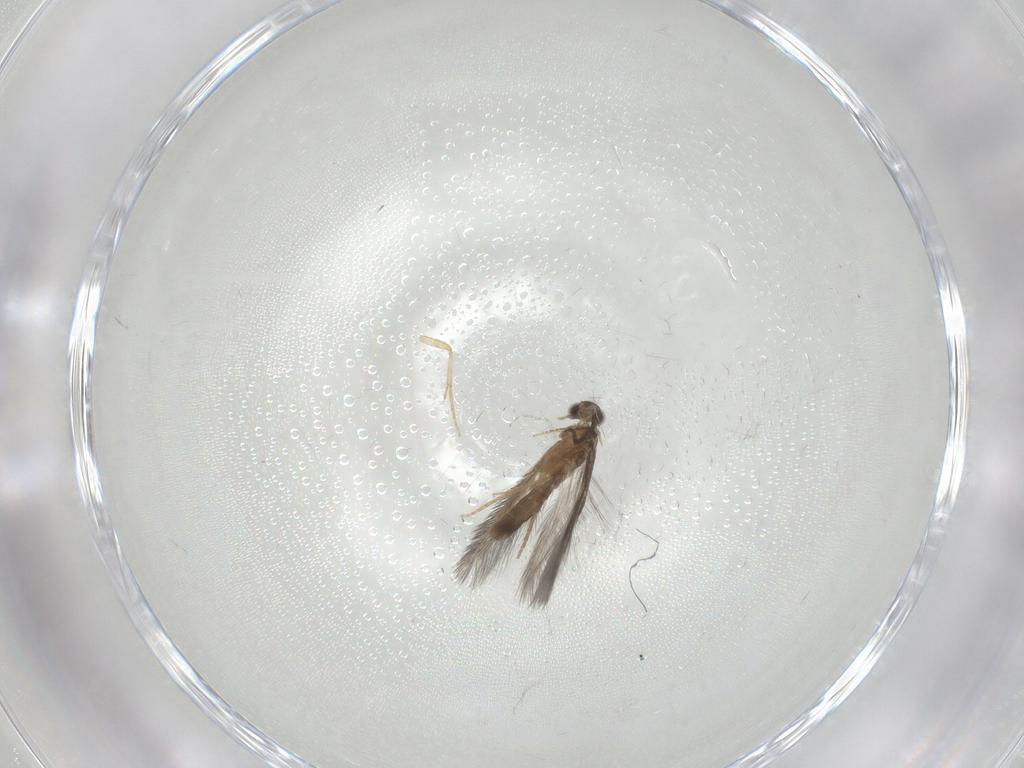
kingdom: Animalia
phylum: Arthropoda
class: Insecta
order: Trichoptera
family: Hydroptilidae
